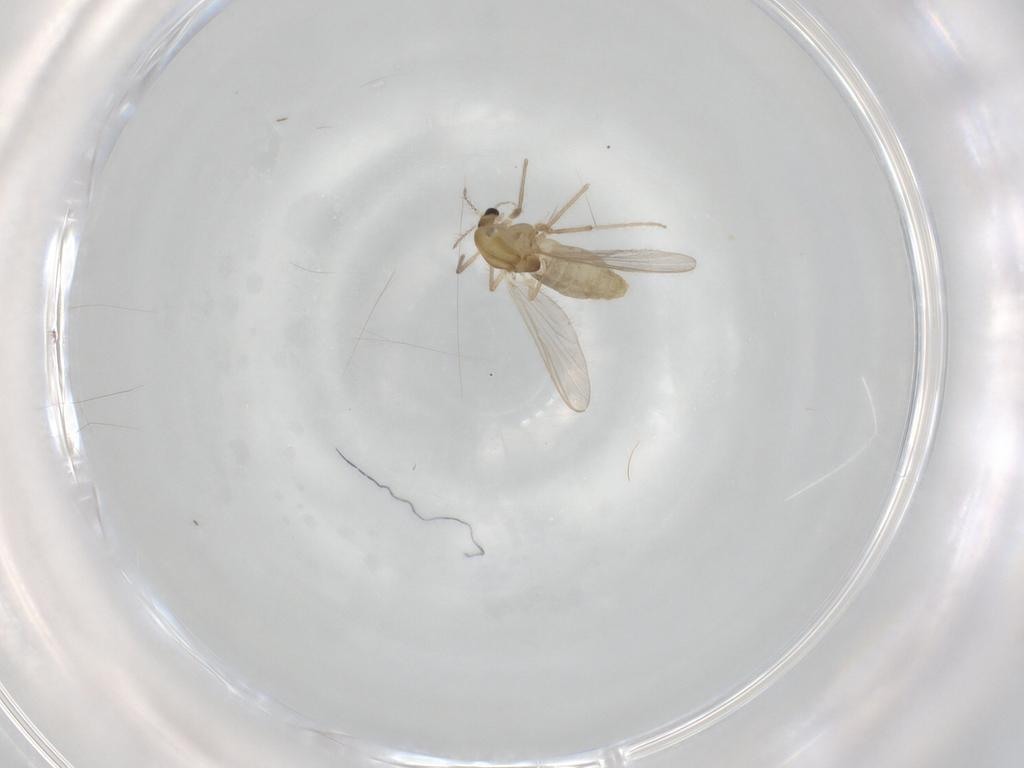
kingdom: Animalia
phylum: Arthropoda
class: Insecta
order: Diptera
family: Chironomidae
